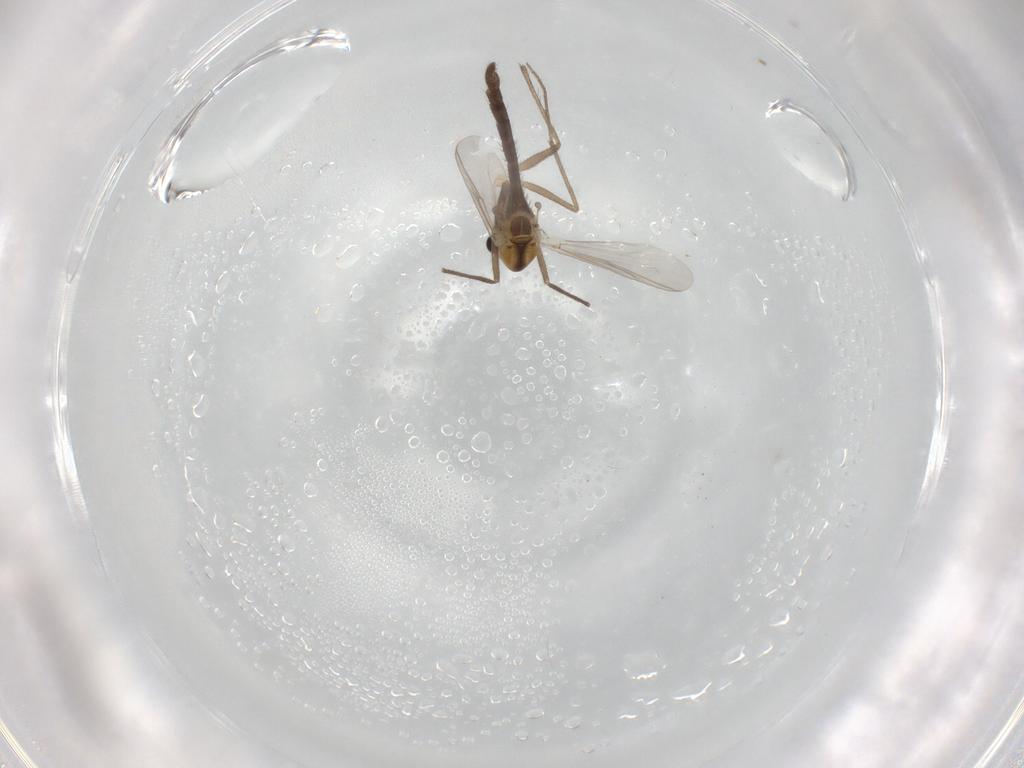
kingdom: Animalia
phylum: Arthropoda
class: Insecta
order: Diptera
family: Chironomidae
